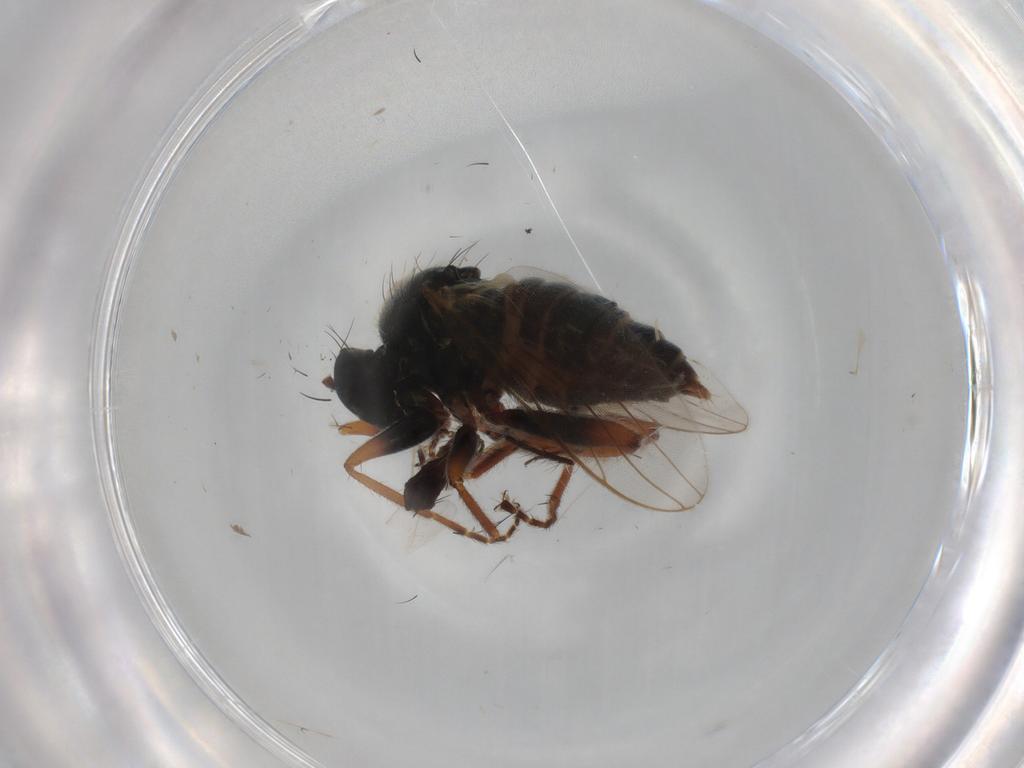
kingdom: Animalia
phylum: Arthropoda
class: Insecta
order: Diptera
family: Hybotidae
